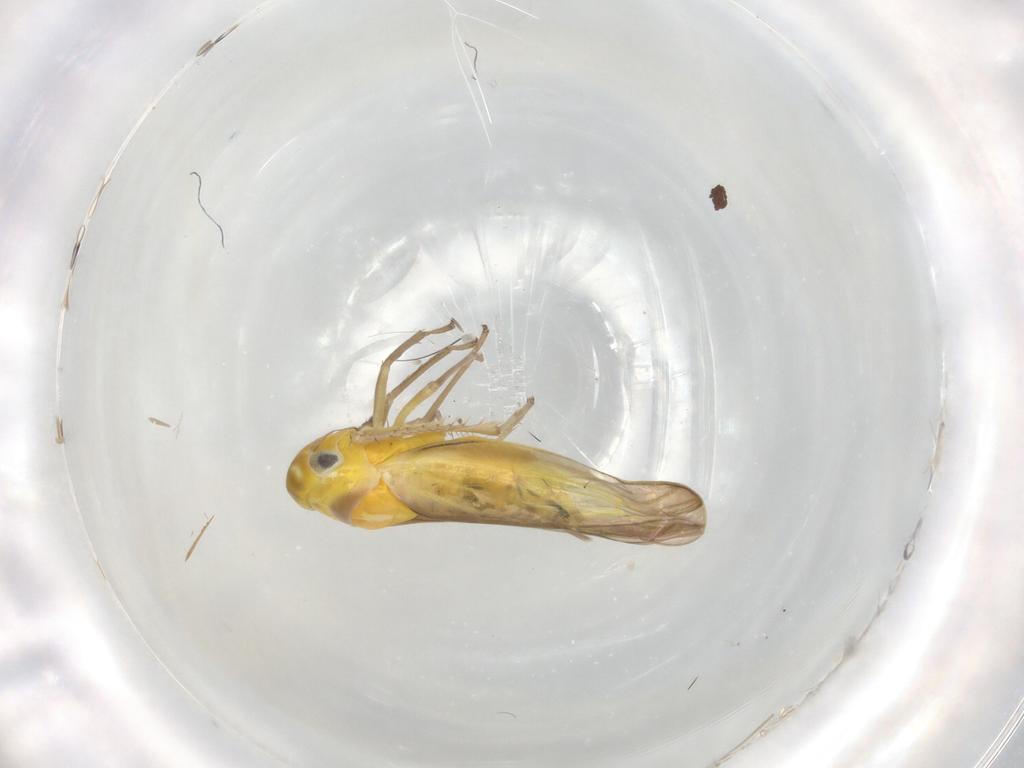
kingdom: Animalia
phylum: Arthropoda
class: Insecta
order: Hemiptera
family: Cicadellidae
